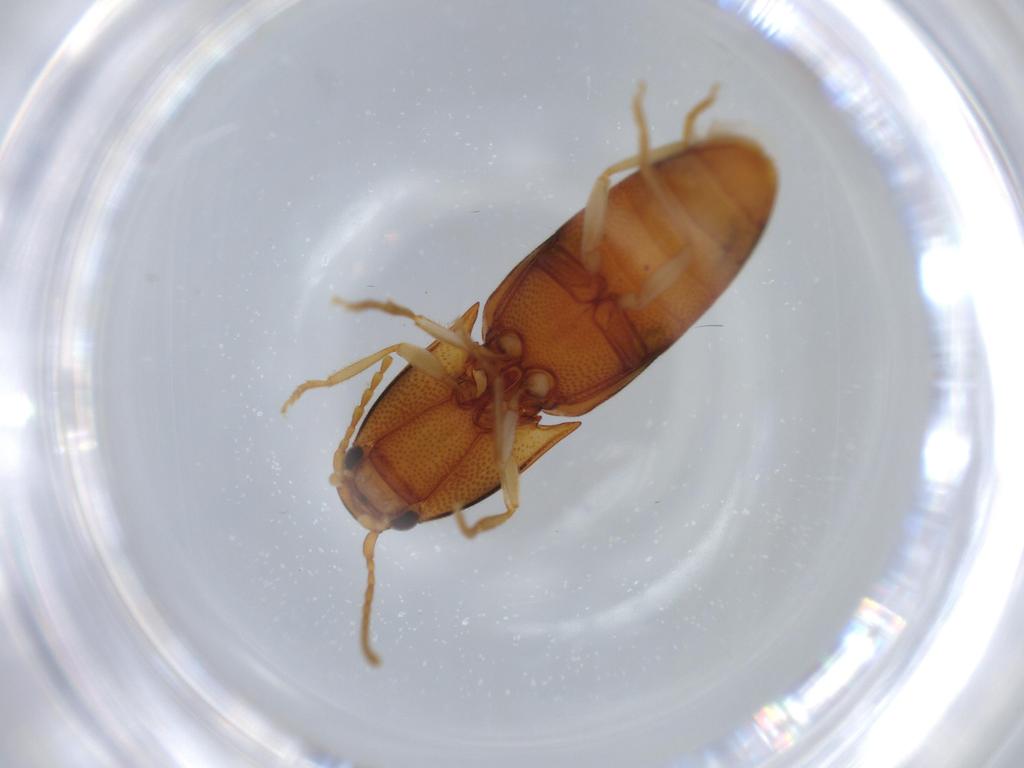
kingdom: Animalia
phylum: Arthropoda
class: Insecta
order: Coleoptera
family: Elateridae
